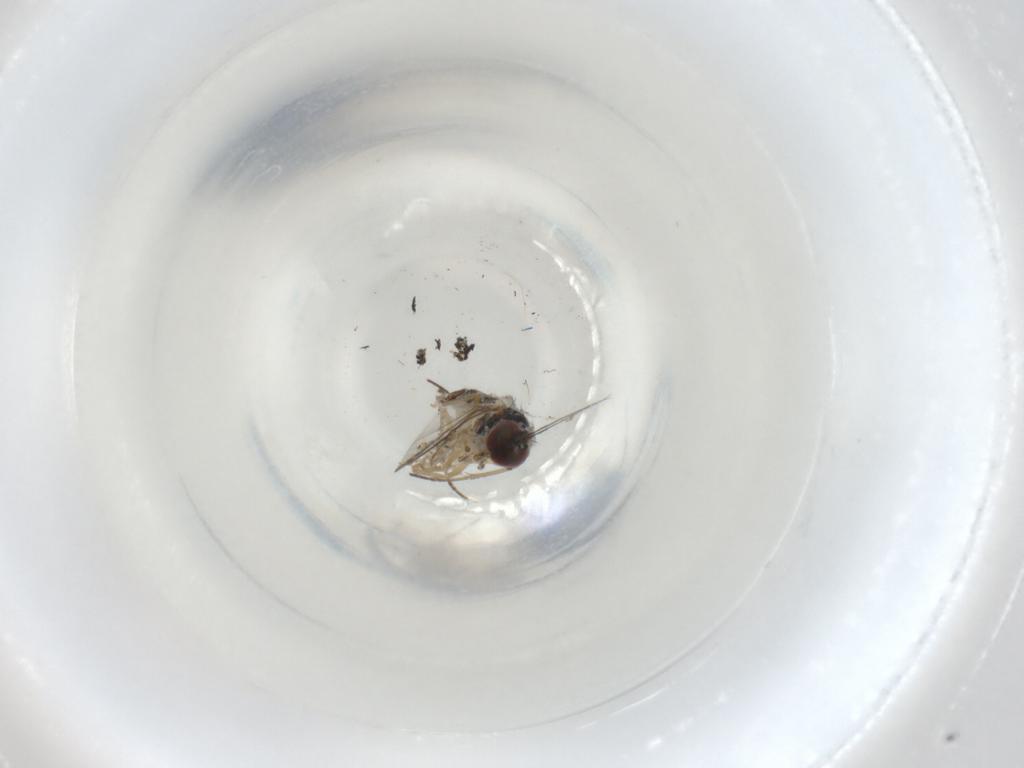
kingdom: Animalia
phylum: Arthropoda
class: Insecta
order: Diptera
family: Dolichopodidae
